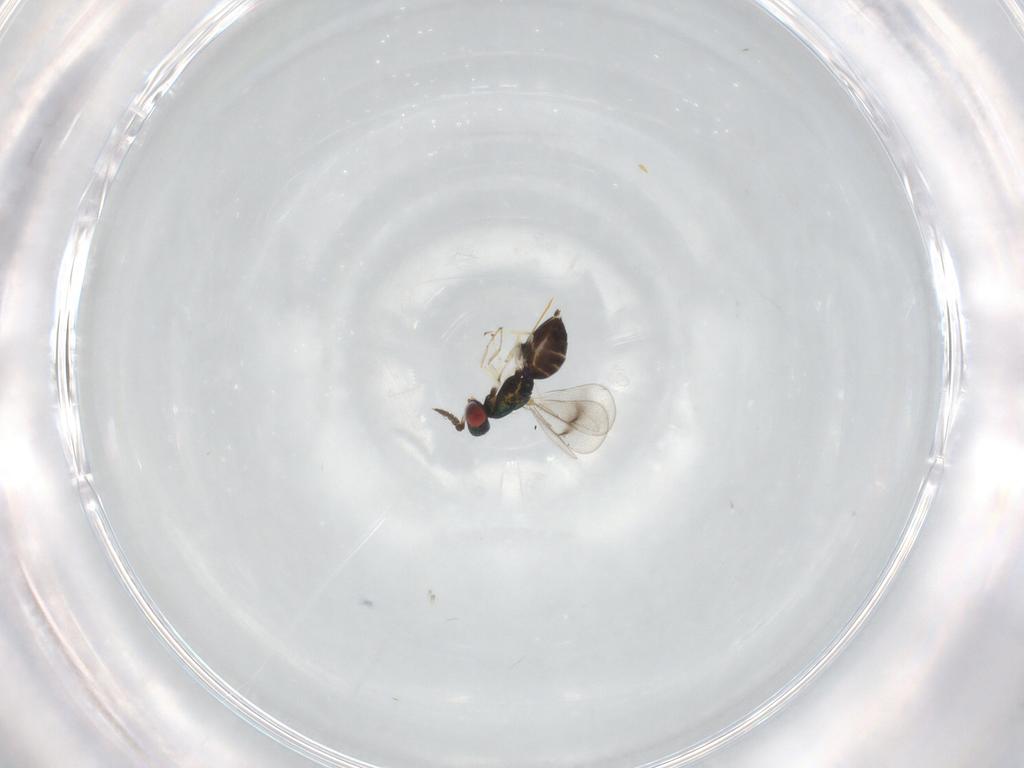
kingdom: Animalia
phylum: Arthropoda
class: Insecta
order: Hymenoptera
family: Eulophidae
